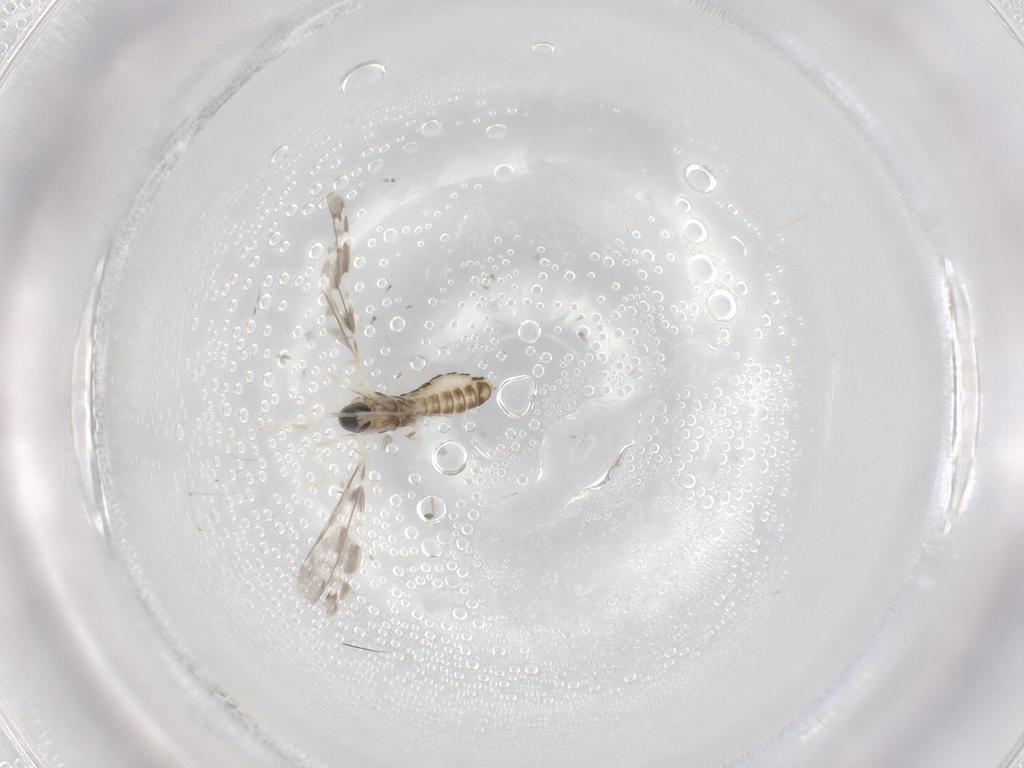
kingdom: Animalia
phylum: Arthropoda
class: Insecta
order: Diptera
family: Cecidomyiidae
